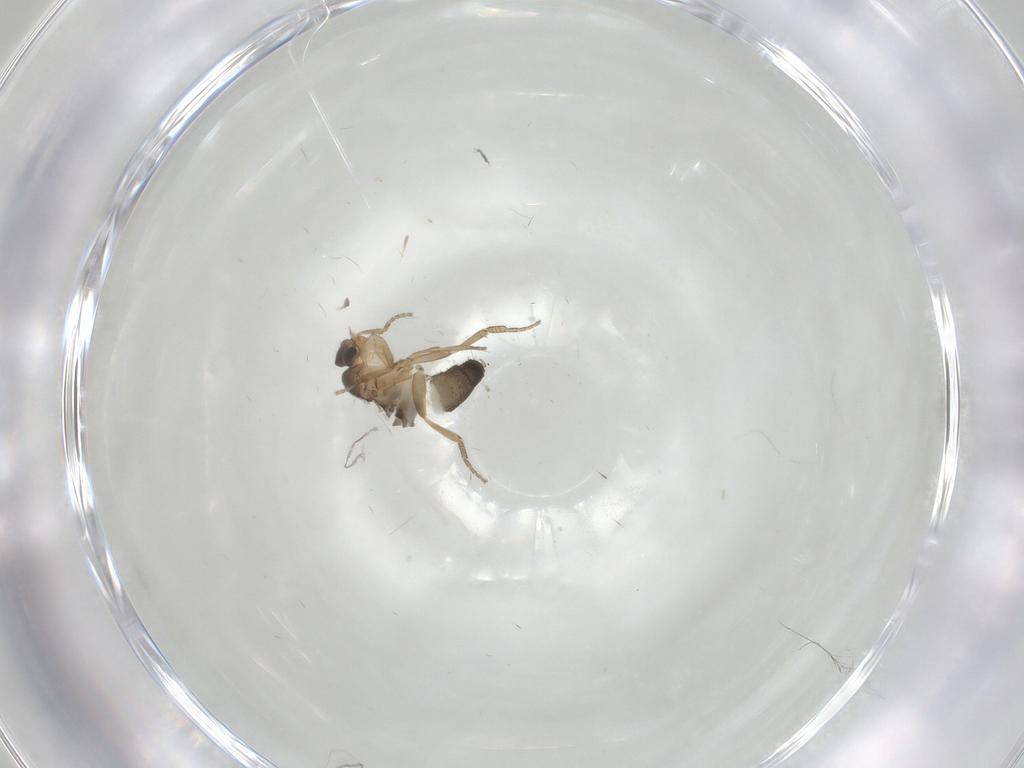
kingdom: Animalia
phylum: Arthropoda
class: Insecta
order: Diptera
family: Phoridae
